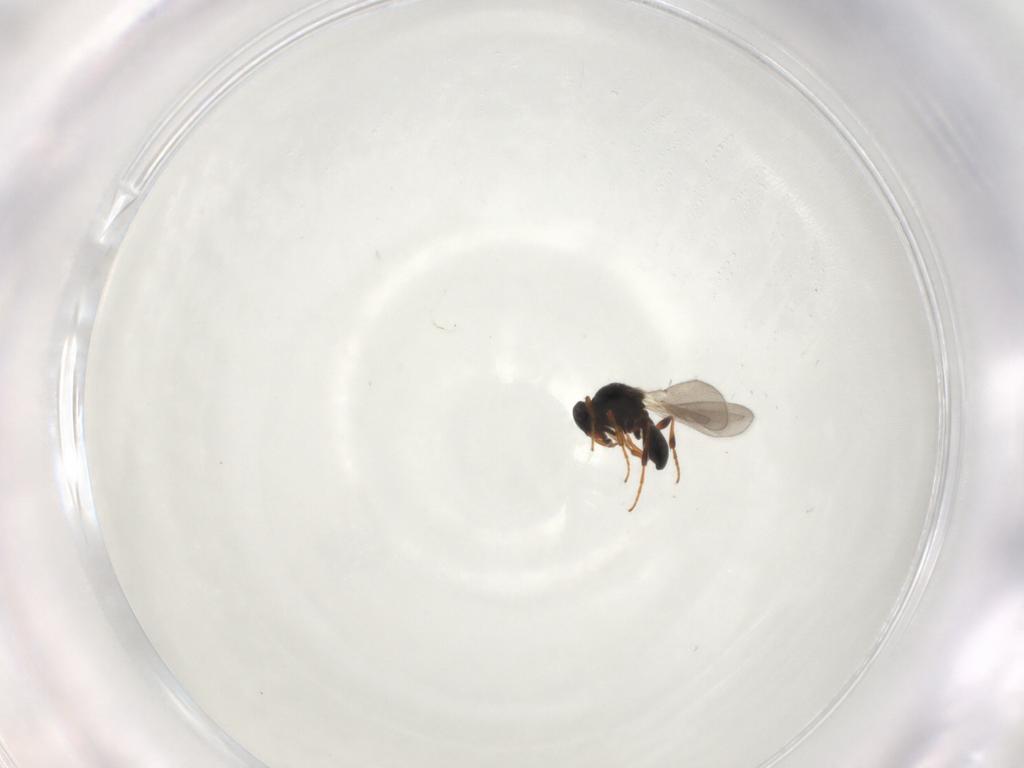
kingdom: Animalia
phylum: Arthropoda
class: Insecta
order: Hymenoptera
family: Platygastridae
